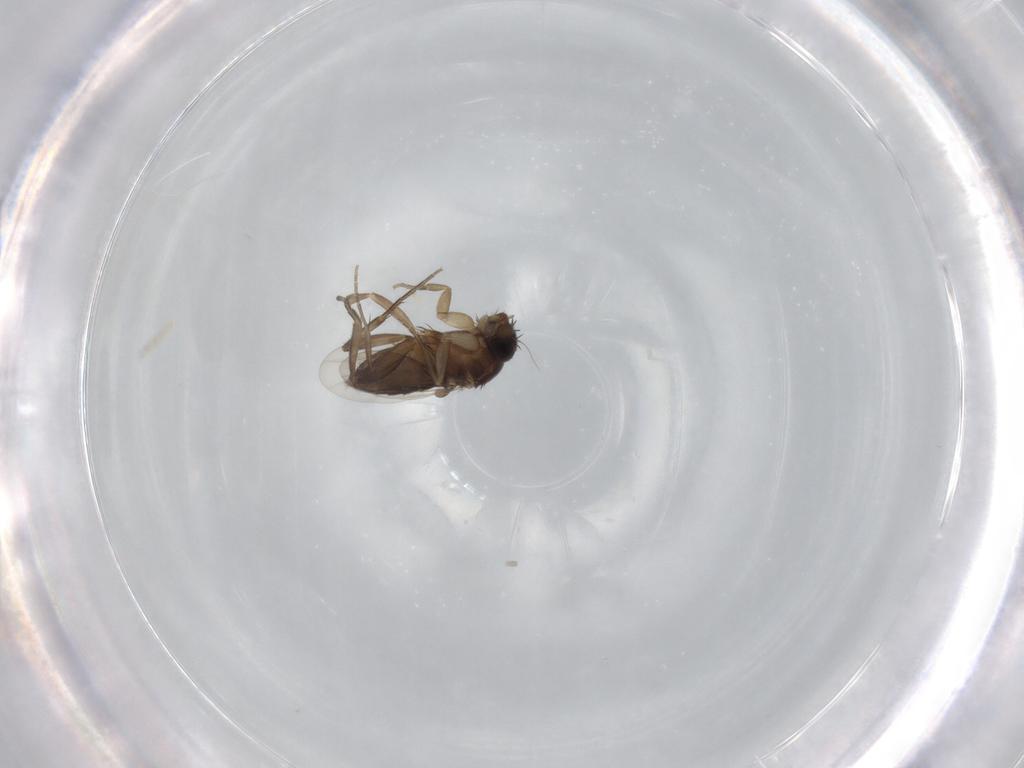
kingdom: Animalia
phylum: Arthropoda
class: Insecta
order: Diptera
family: Phoridae
